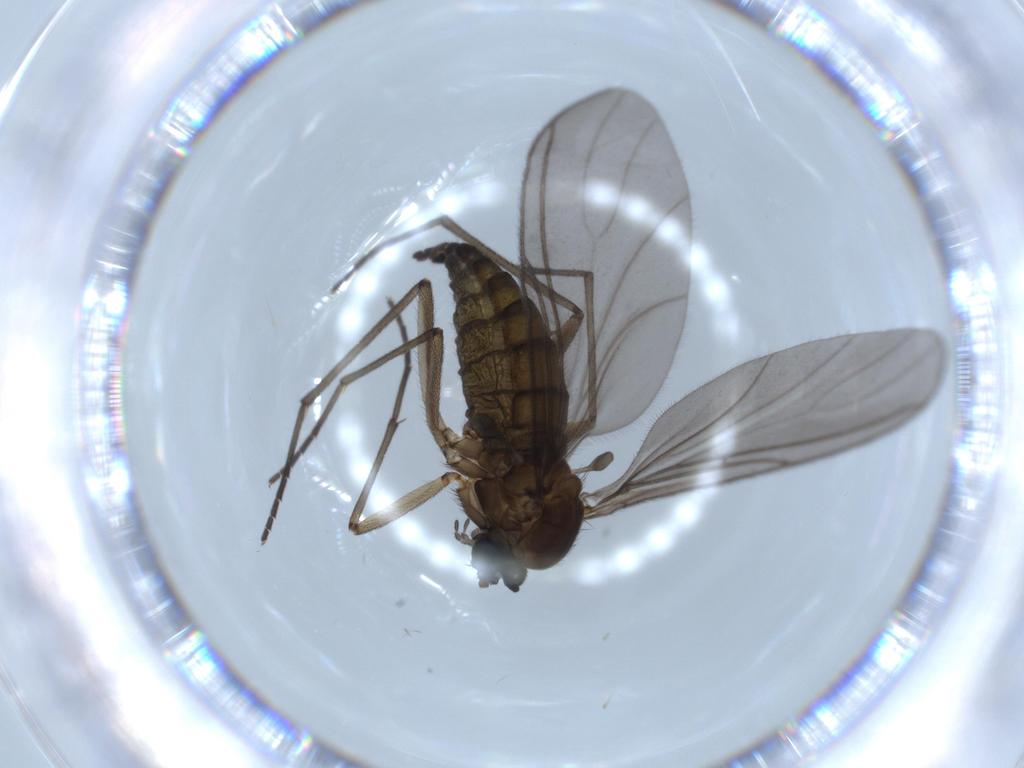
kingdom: Animalia
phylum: Arthropoda
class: Insecta
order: Diptera
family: Sciaridae
